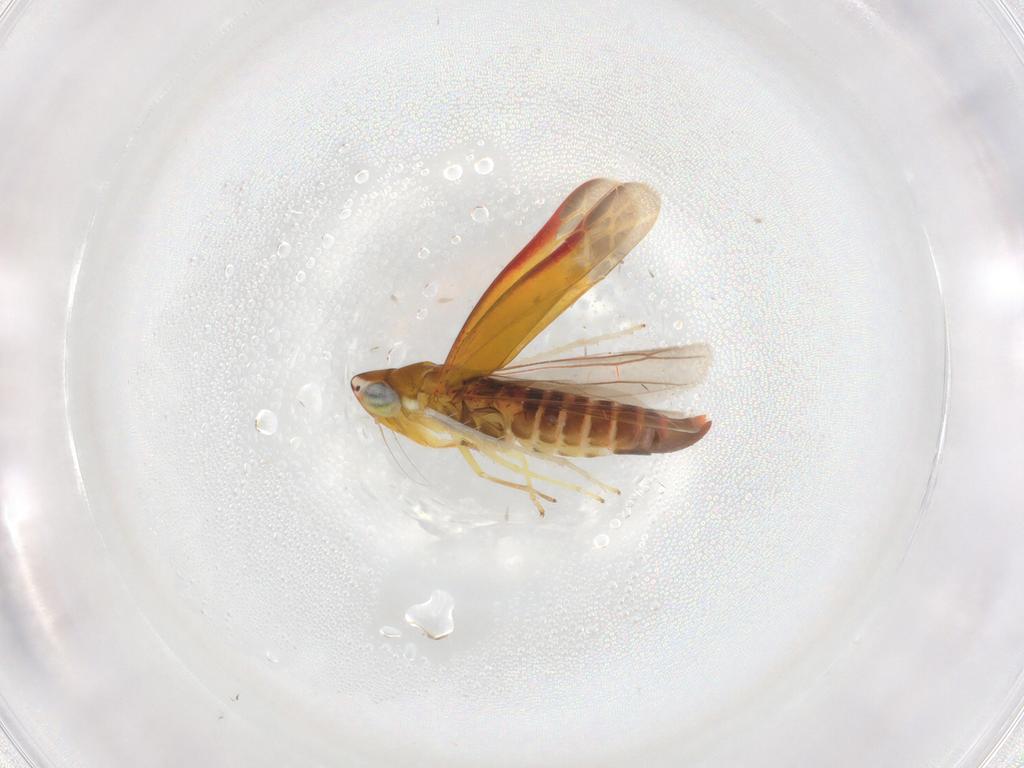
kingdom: Animalia
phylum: Arthropoda
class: Insecta
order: Hemiptera
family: Cicadellidae
